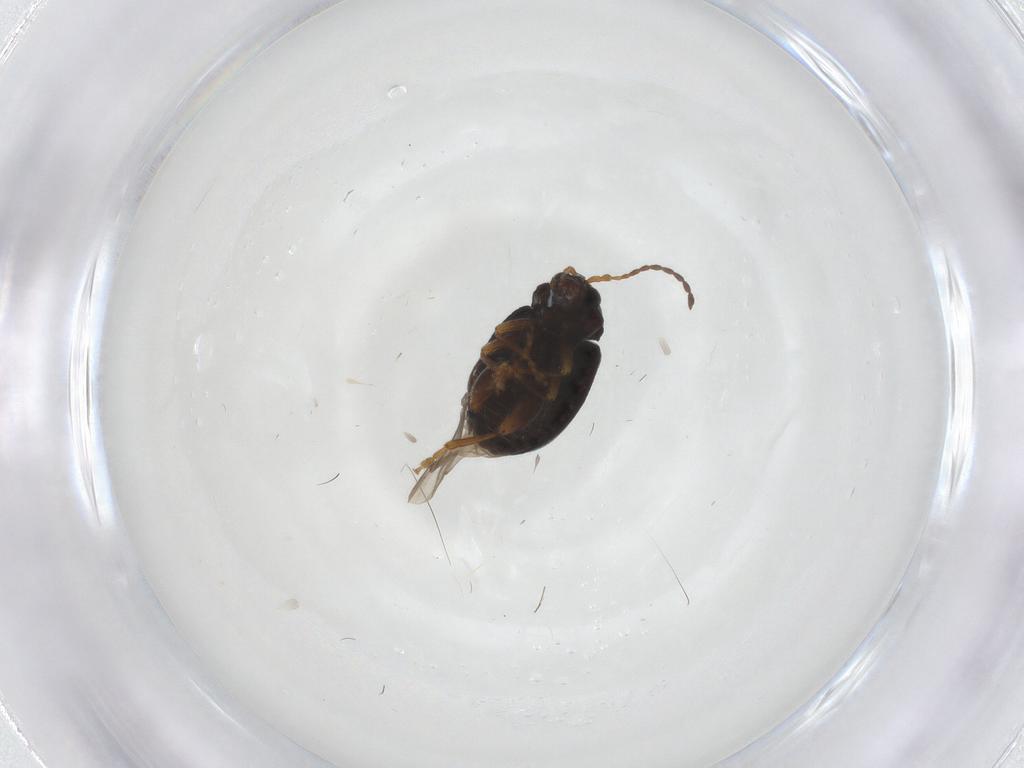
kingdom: Animalia
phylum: Arthropoda
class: Insecta
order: Coleoptera
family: Chrysomelidae
